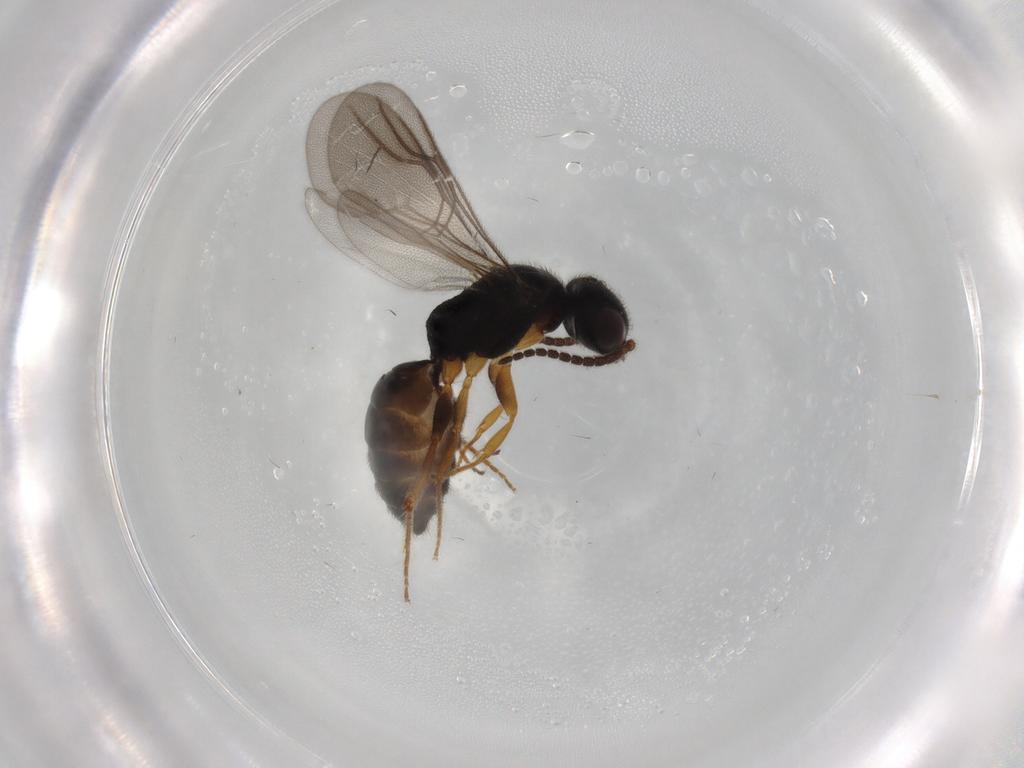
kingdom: Animalia
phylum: Arthropoda
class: Insecta
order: Hymenoptera
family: Bethylidae
